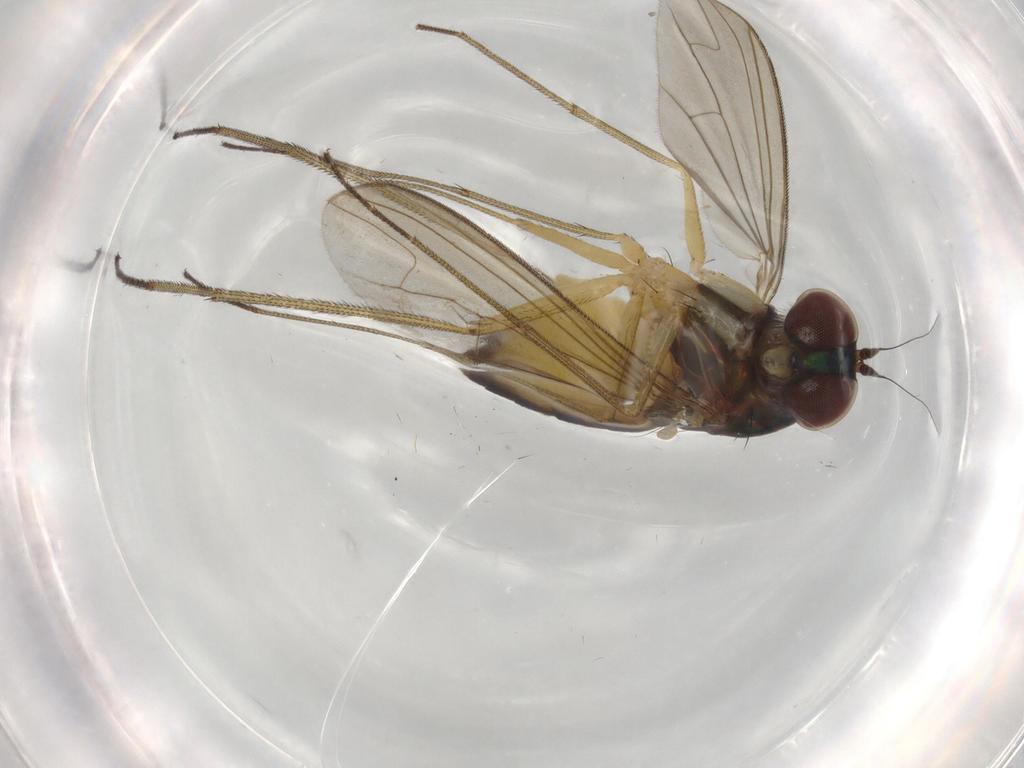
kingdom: Animalia
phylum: Arthropoda
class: Insecta
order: Diptera
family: Dolichopodidae
